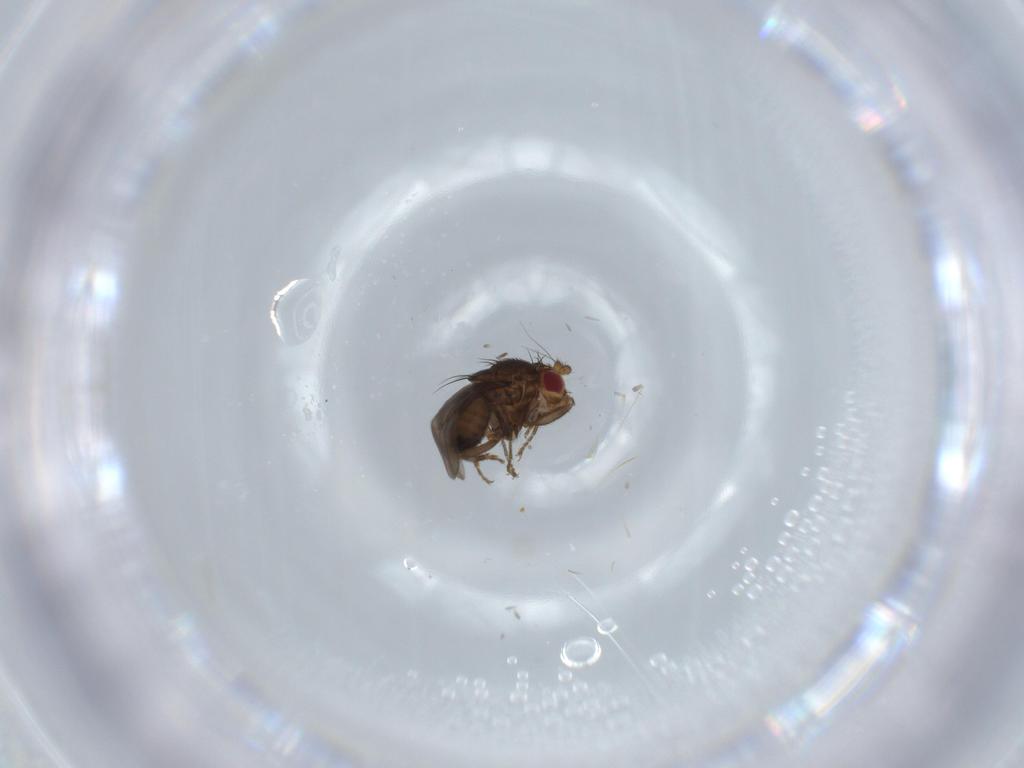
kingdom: Animalia
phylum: Arthropoda
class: Insecta
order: Diptera
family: Sphaeroceridae
